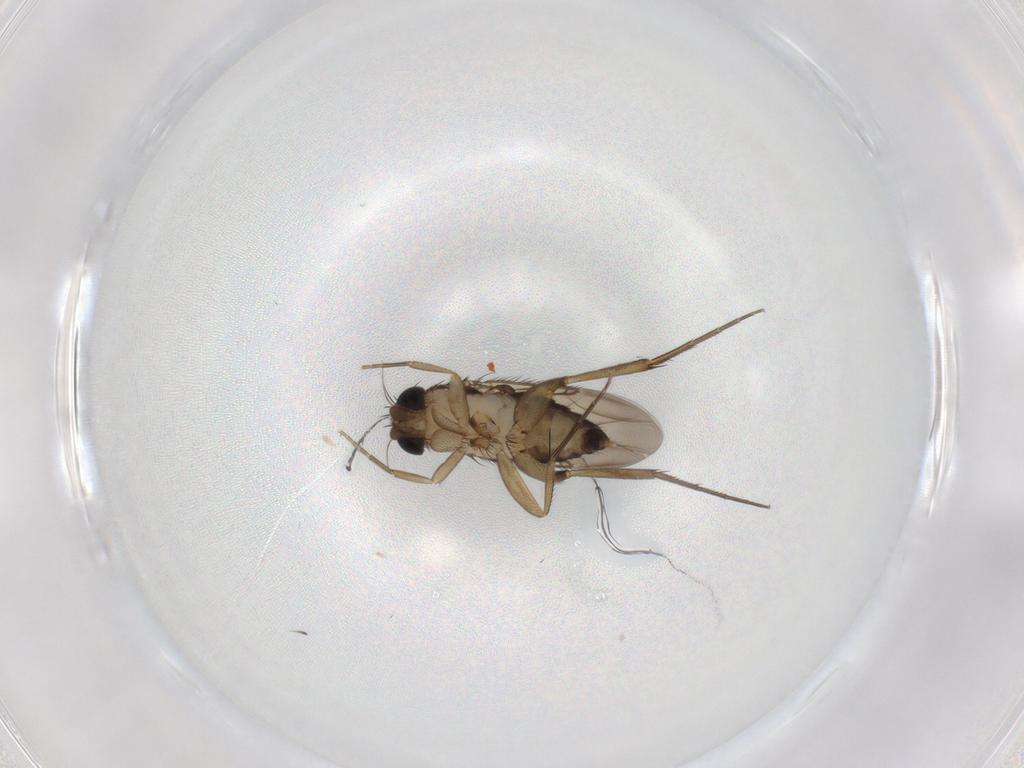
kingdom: Animalia
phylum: Arthropoda
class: Insecta
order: Diptera
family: Phoridae
